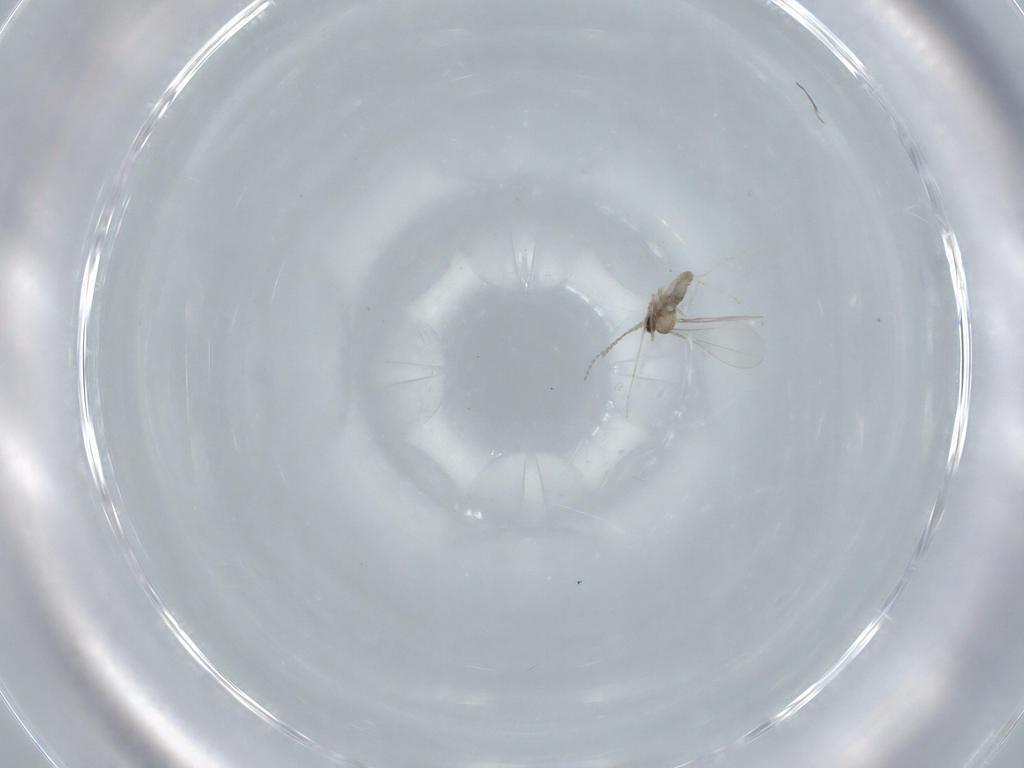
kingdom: Animalia
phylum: Arthropoda
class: Insecta
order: Diptera
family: Cecidomyiidae
